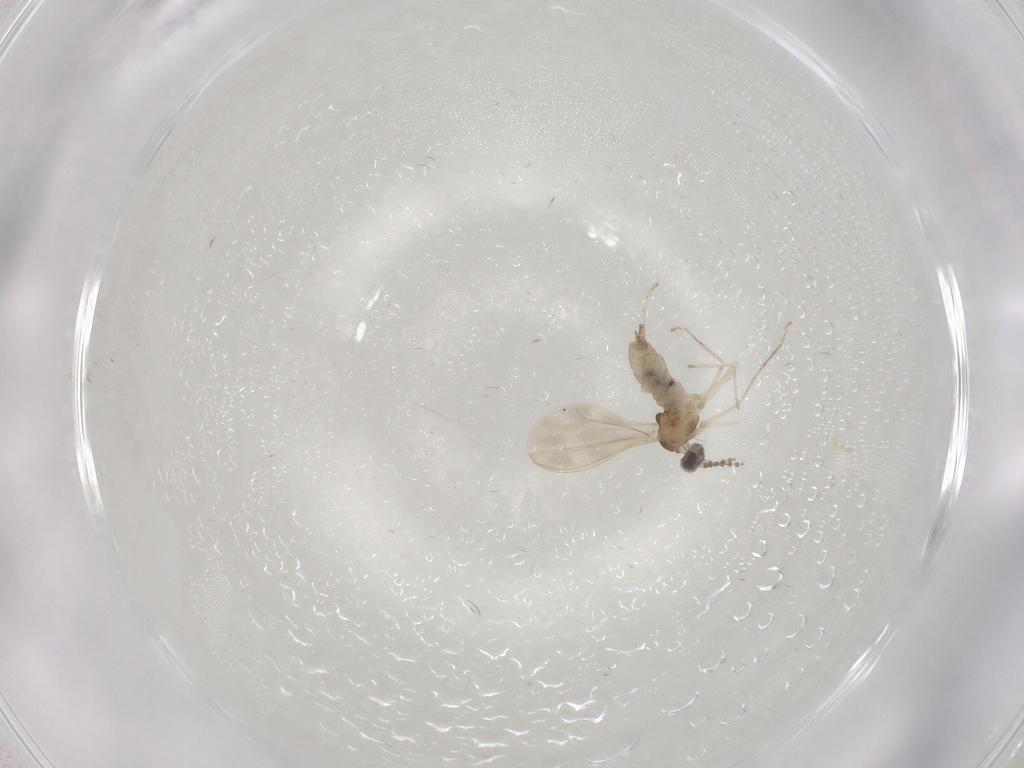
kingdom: Animalia
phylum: Arthropoda
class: Insecta
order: Diptera
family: Cecidomyiidae
